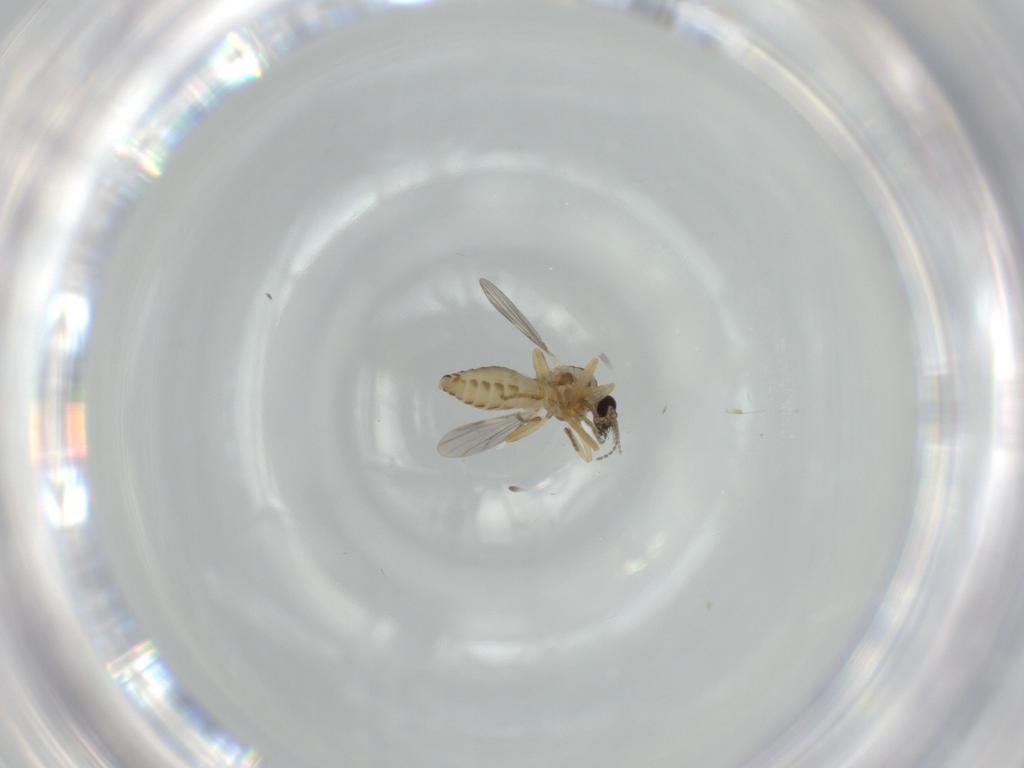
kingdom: Animalia
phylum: Arthropoda
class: Insecta
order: Diptera
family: Ceratopogonidae
